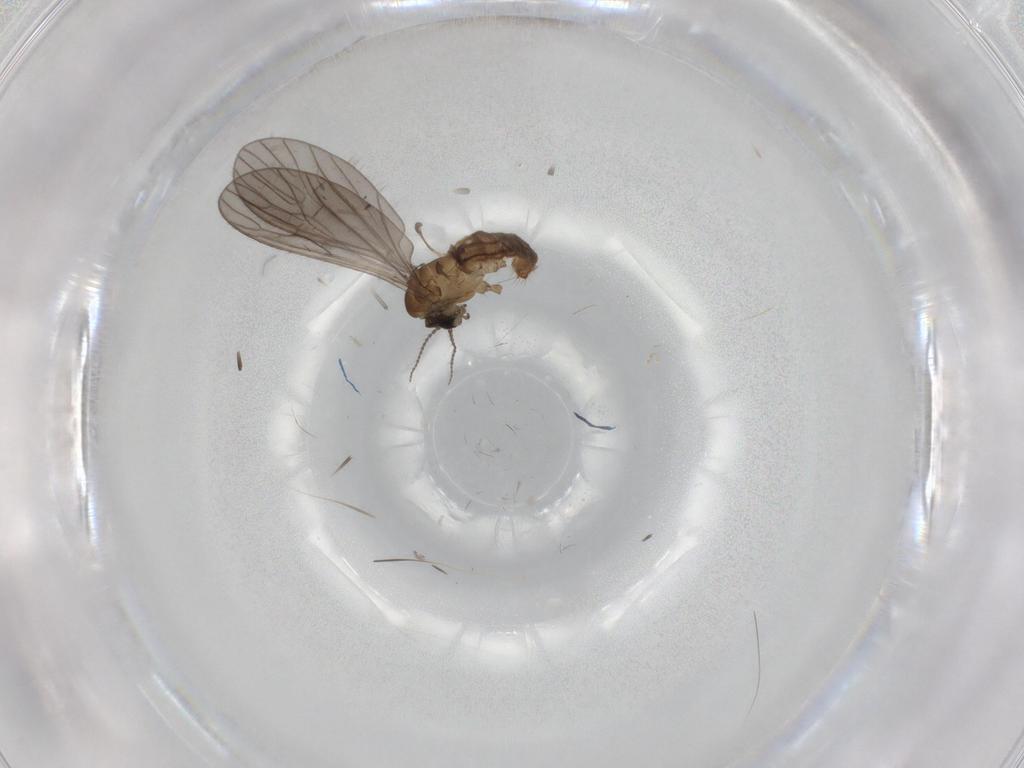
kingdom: Animalia
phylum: Arthropoda
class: Insecta
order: Diptera
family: Limoniidae
